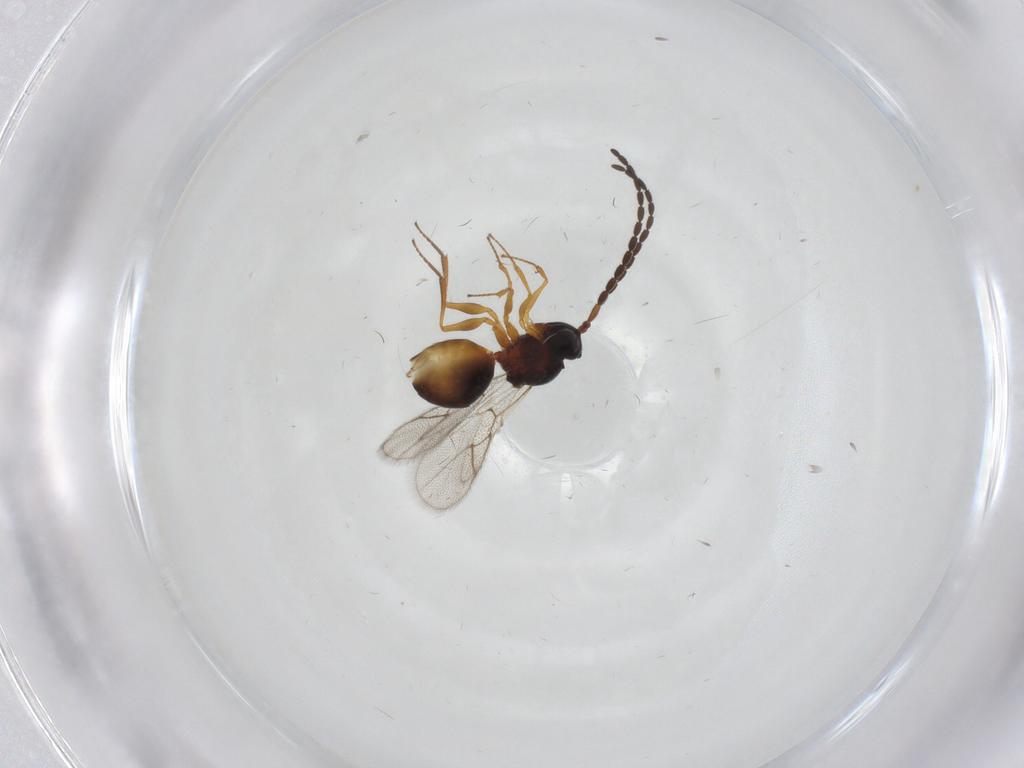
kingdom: Animalia
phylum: Arthropoda
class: Insecta
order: Hymenoptera
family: Figitidae
